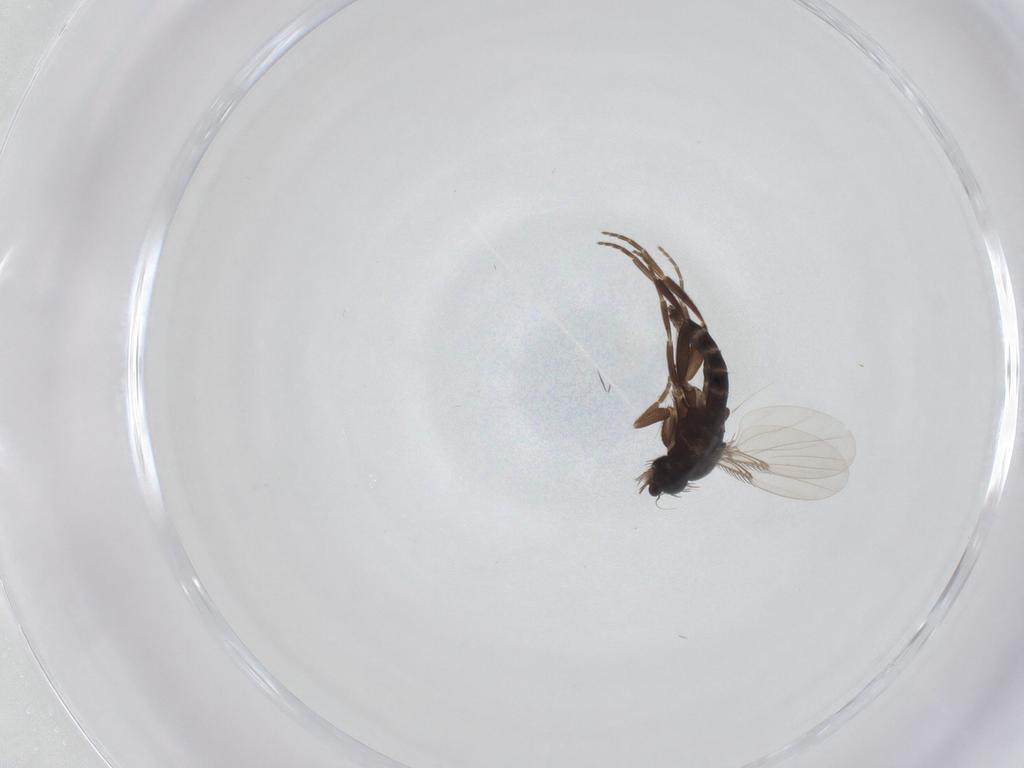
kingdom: Animalia
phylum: Arthropoda
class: Insecta
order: Diptera
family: Phoridae
